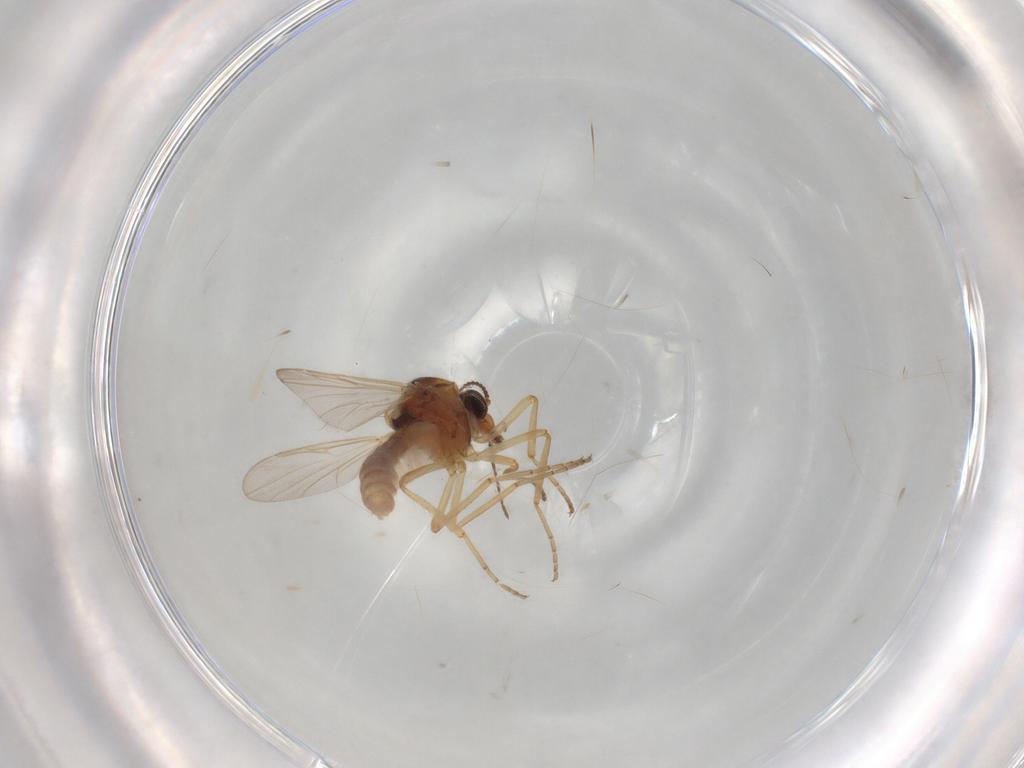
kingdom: Animalia
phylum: Arthropoda
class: Insecta
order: Diptera
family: Ceratopogonidae
